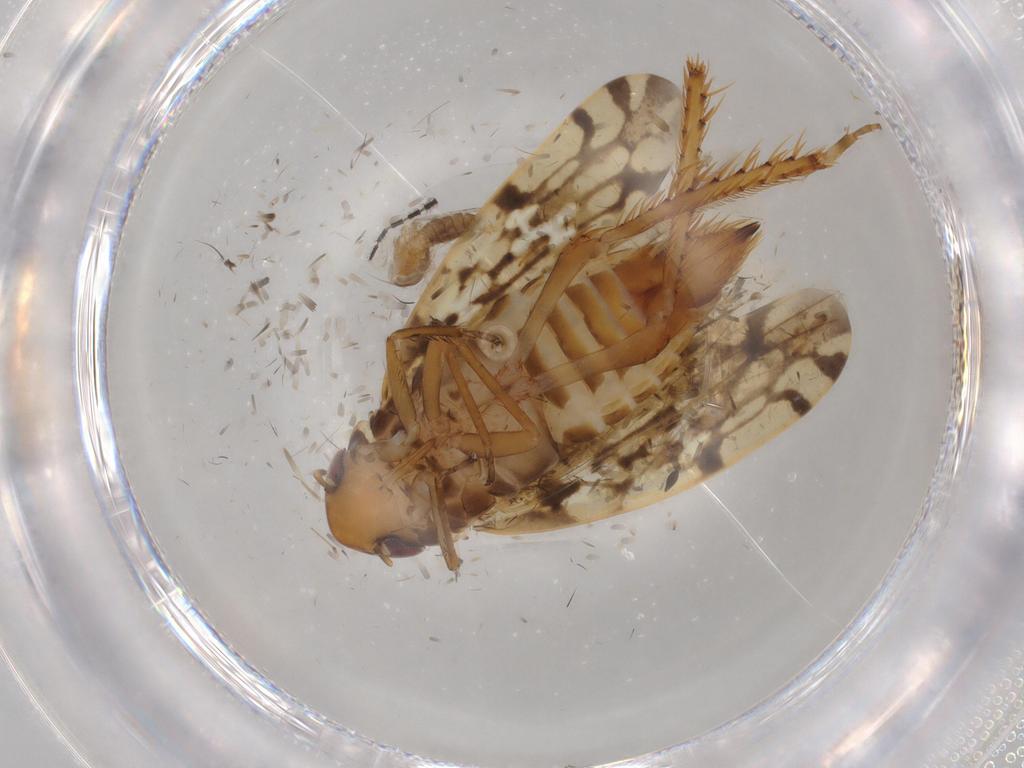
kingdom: Animalia
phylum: Arthropoda
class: Insecta
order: Hemiptera
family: Cicadellidae
